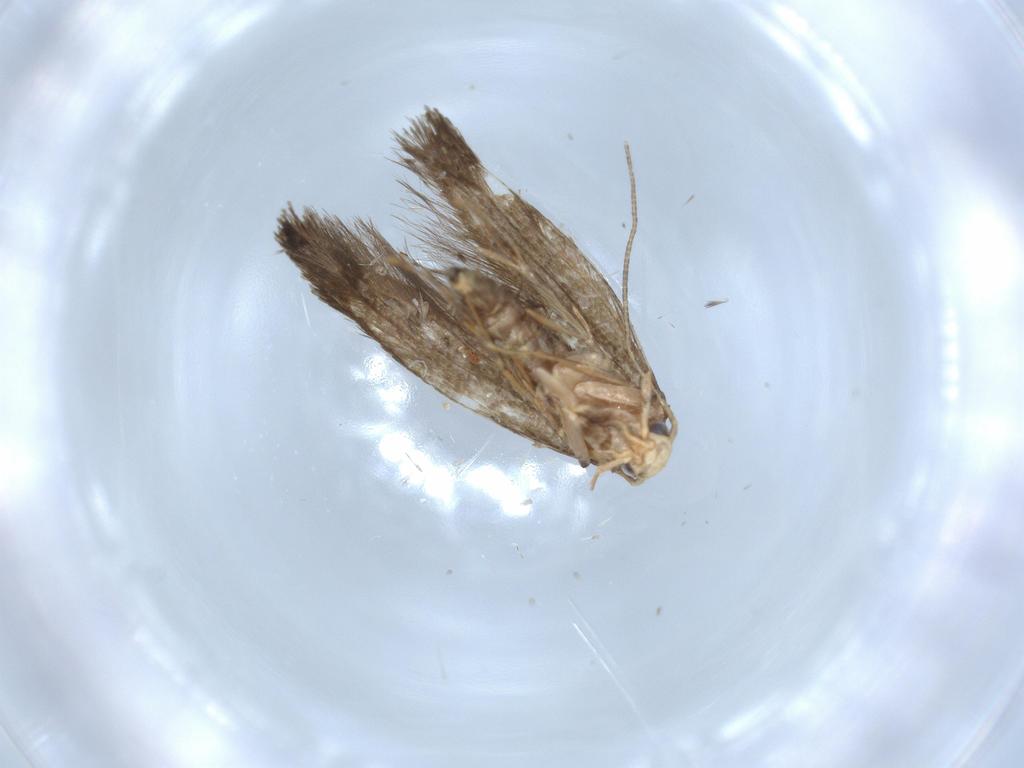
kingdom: Animalia
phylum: Arthropoda
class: Insecta
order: Lepidoptera
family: Tineidae
